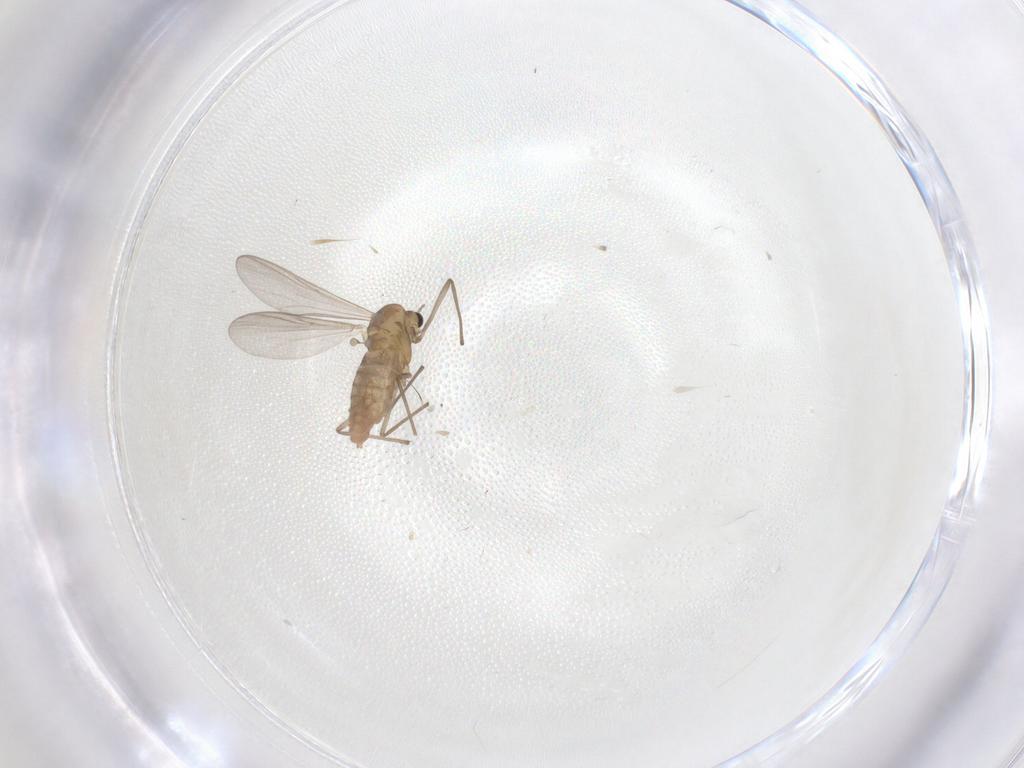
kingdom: Animalia
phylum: Arthropoda
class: Insecta
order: Diptera
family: Chironomidae
